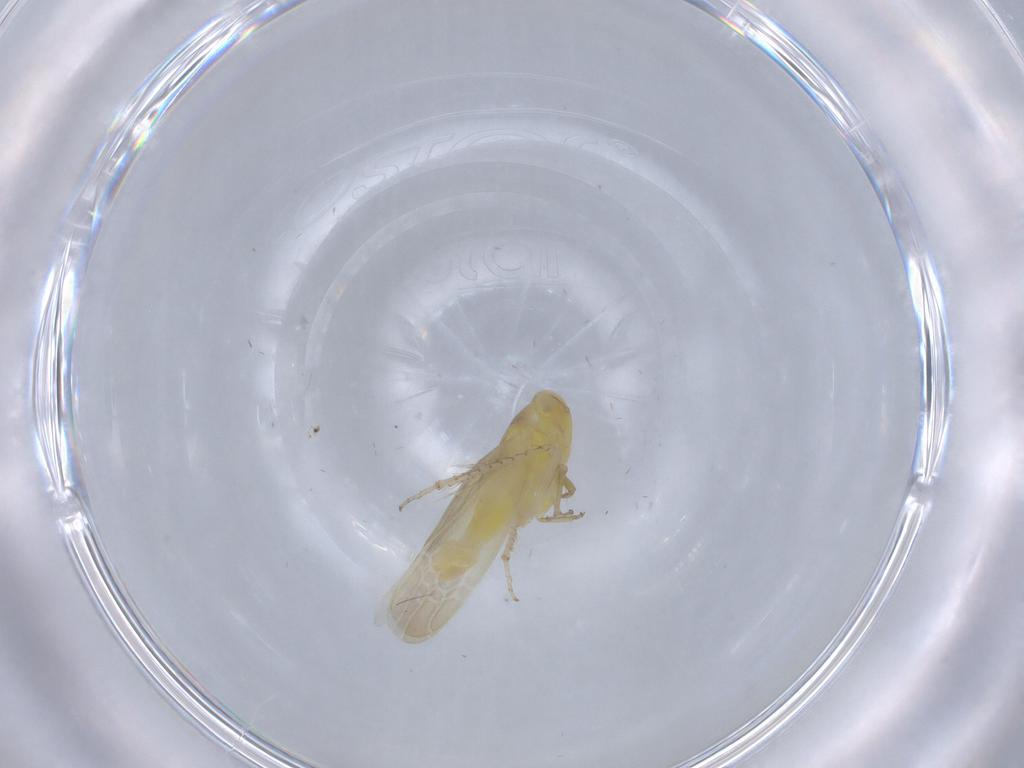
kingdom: Animalia
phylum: Arthropoda
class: Insecta
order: Hemiptera
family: Cicadellidae
